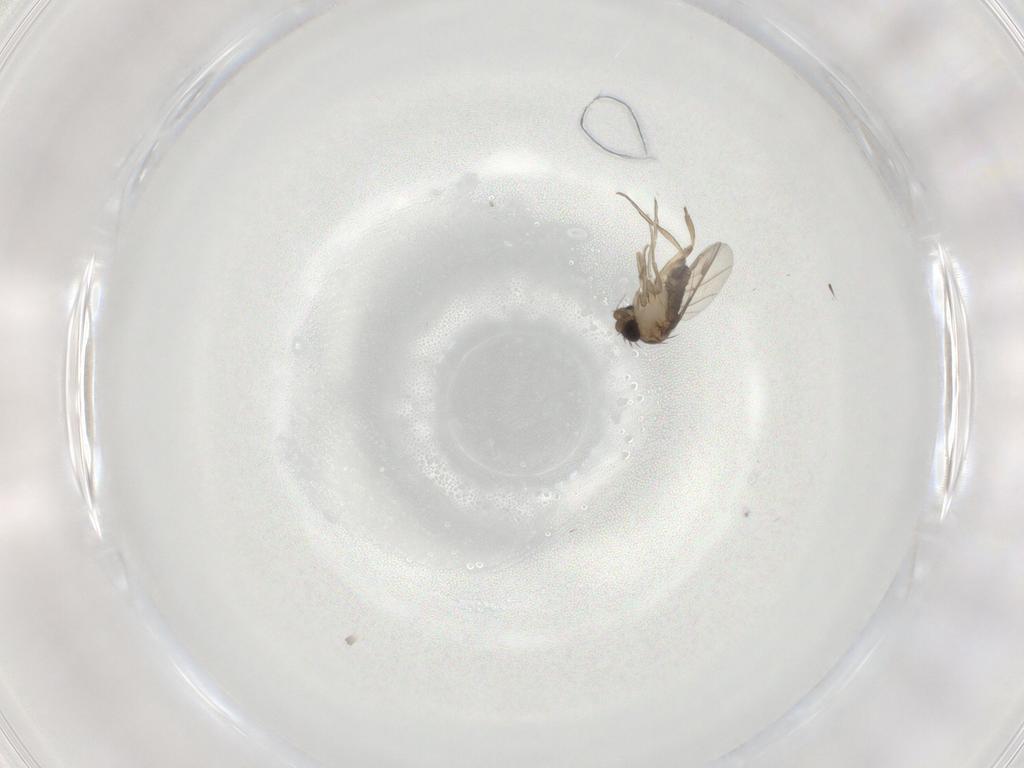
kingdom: Animalia
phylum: Arthropoda
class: Insecta
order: Diptera
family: Phoridae
